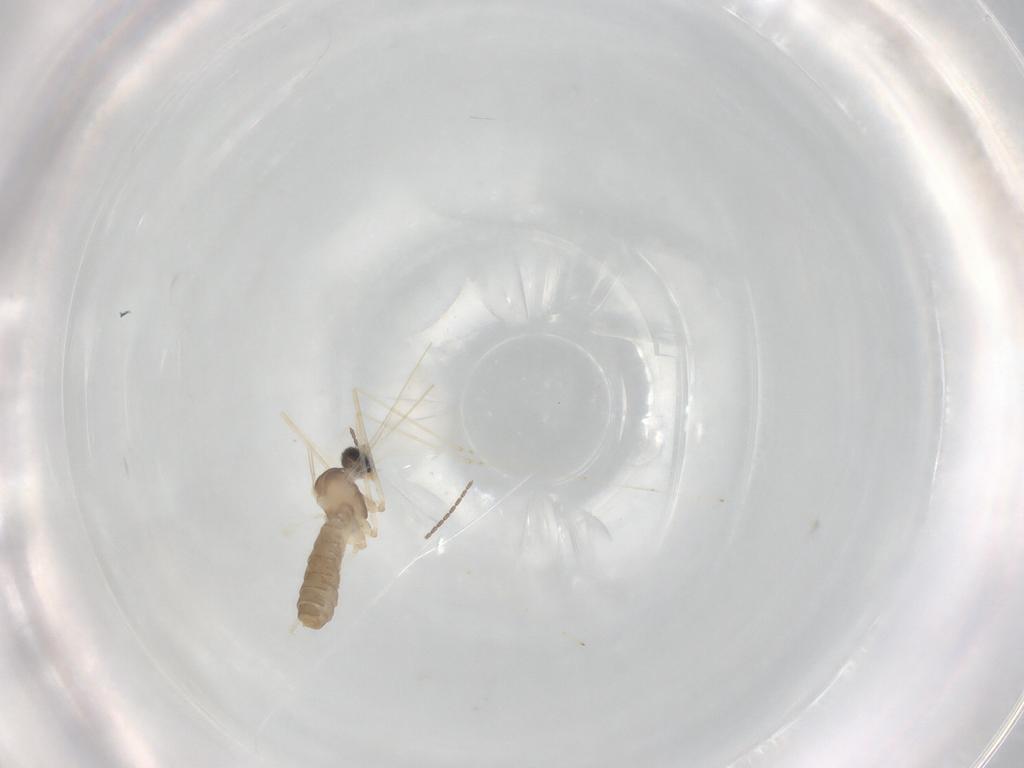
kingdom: Animalia
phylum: Arthropoda
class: Insecta
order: Diptera
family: Cecidomyiidae
